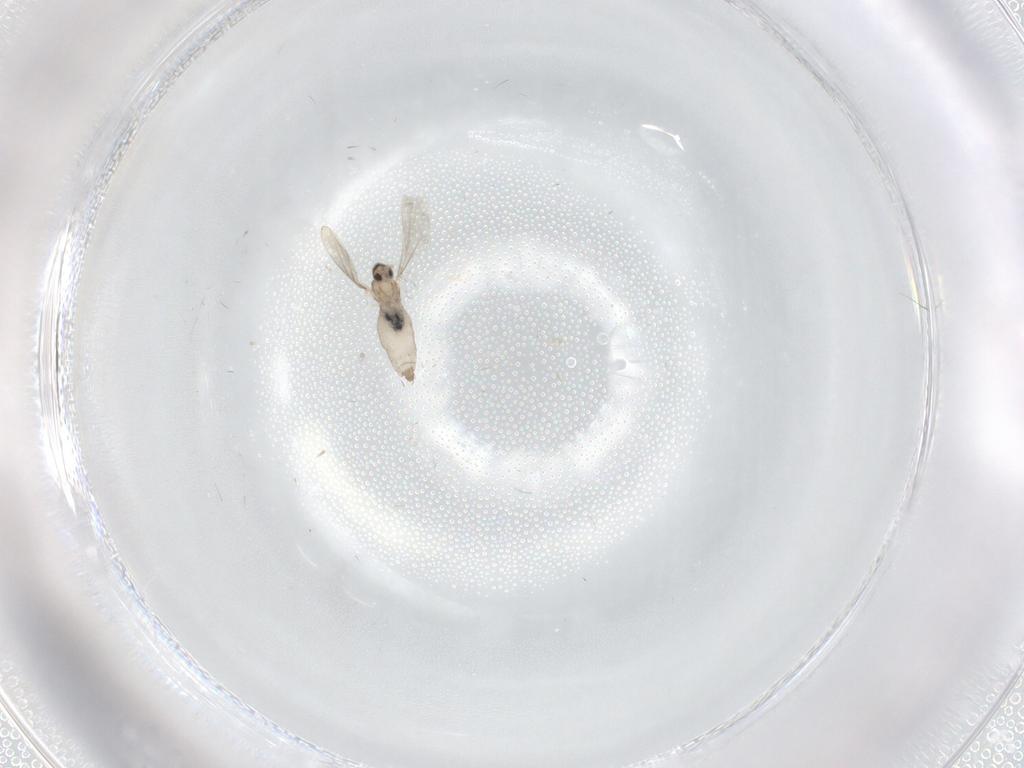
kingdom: Animalia
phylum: Arthropoda
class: Insecta
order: Diptera
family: Cecidomyiidae
